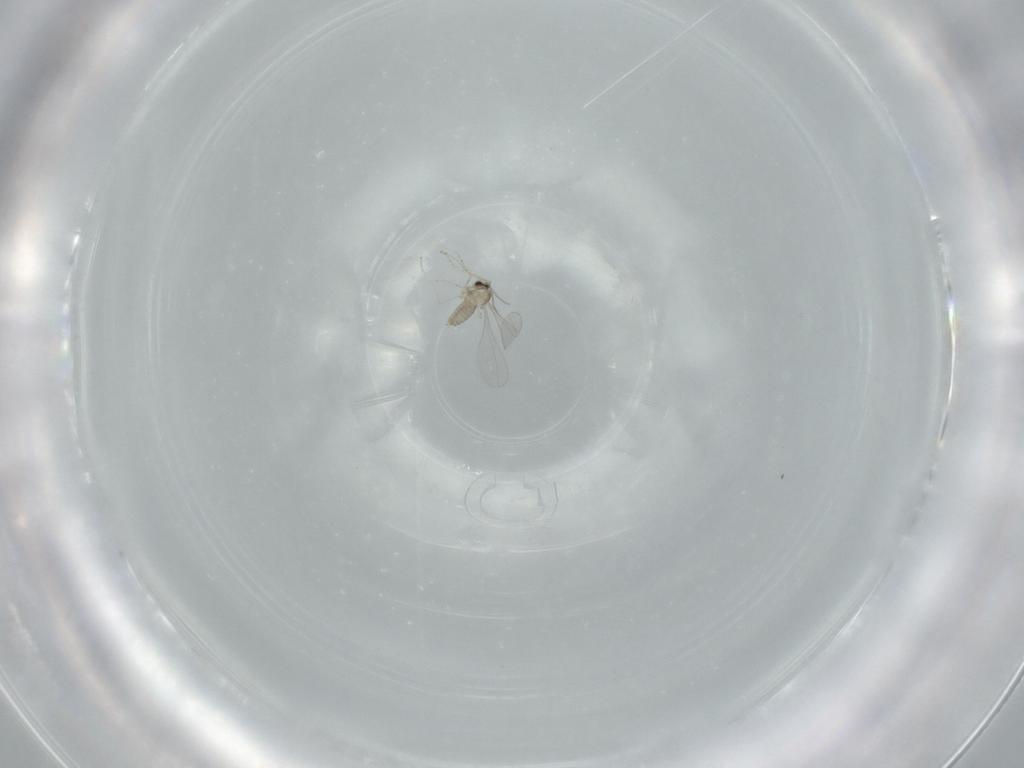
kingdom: Animalia
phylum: Arthropoda
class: Insecta
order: Diptera
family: Cecidomyiidae
